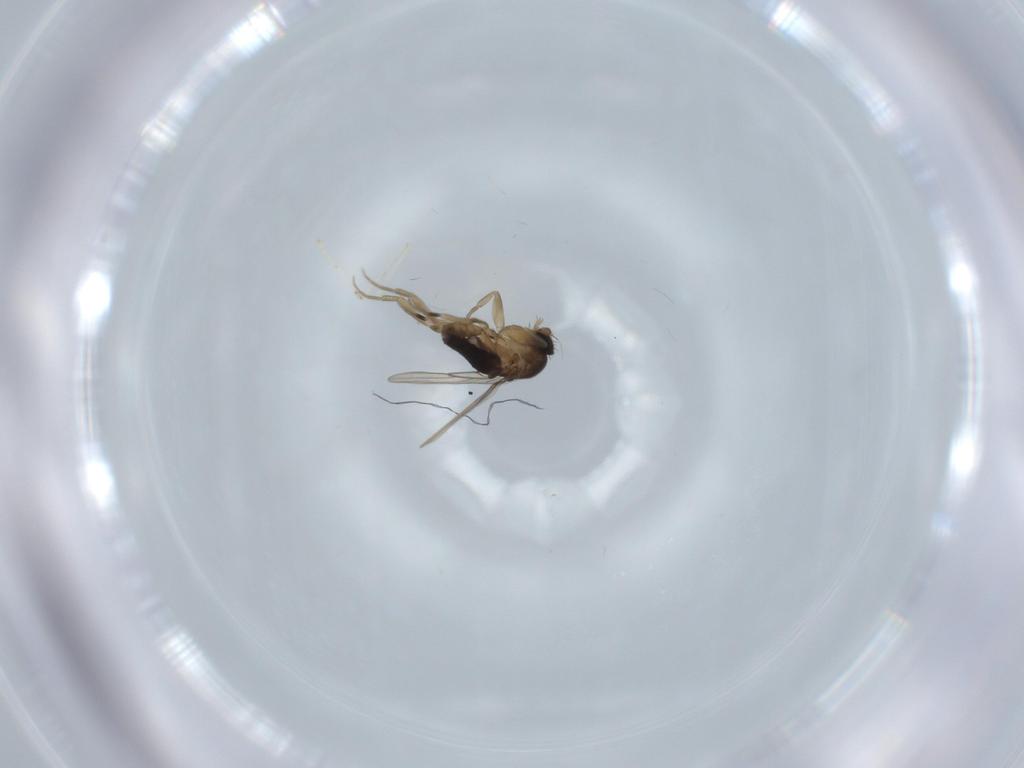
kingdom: Animalia
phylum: Arthropoda
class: Insecta
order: Diptera
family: Phoridae
